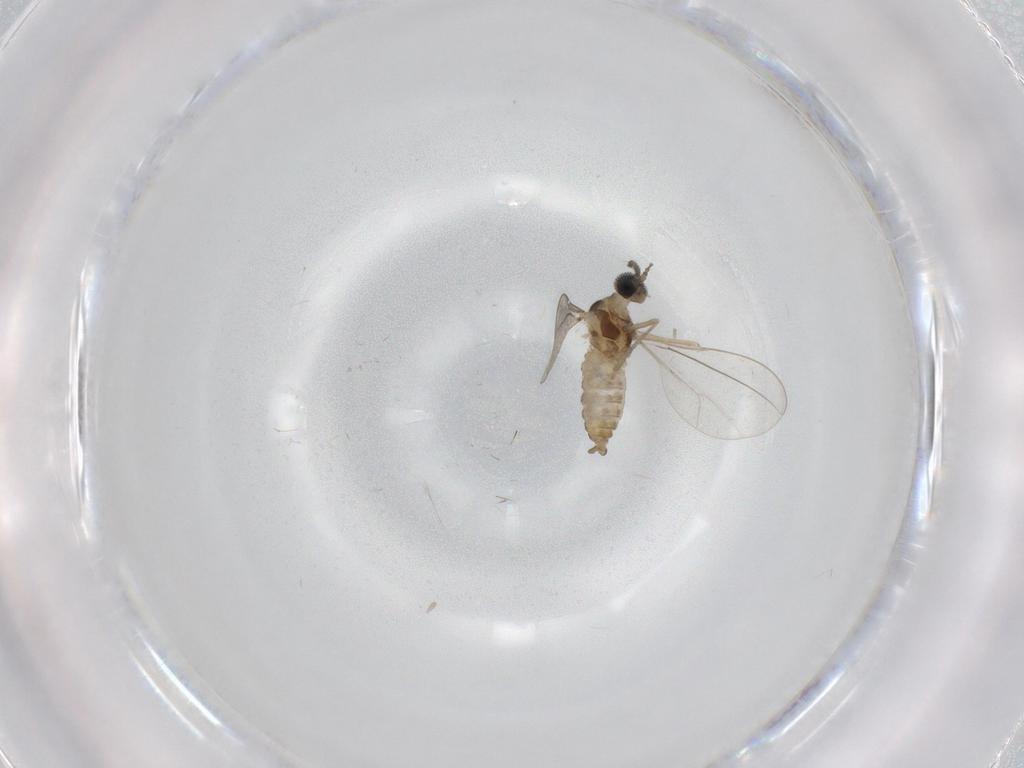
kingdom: Animalia
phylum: Arthropoda
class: Insecta
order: Diptera
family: Cecidomyiidae
